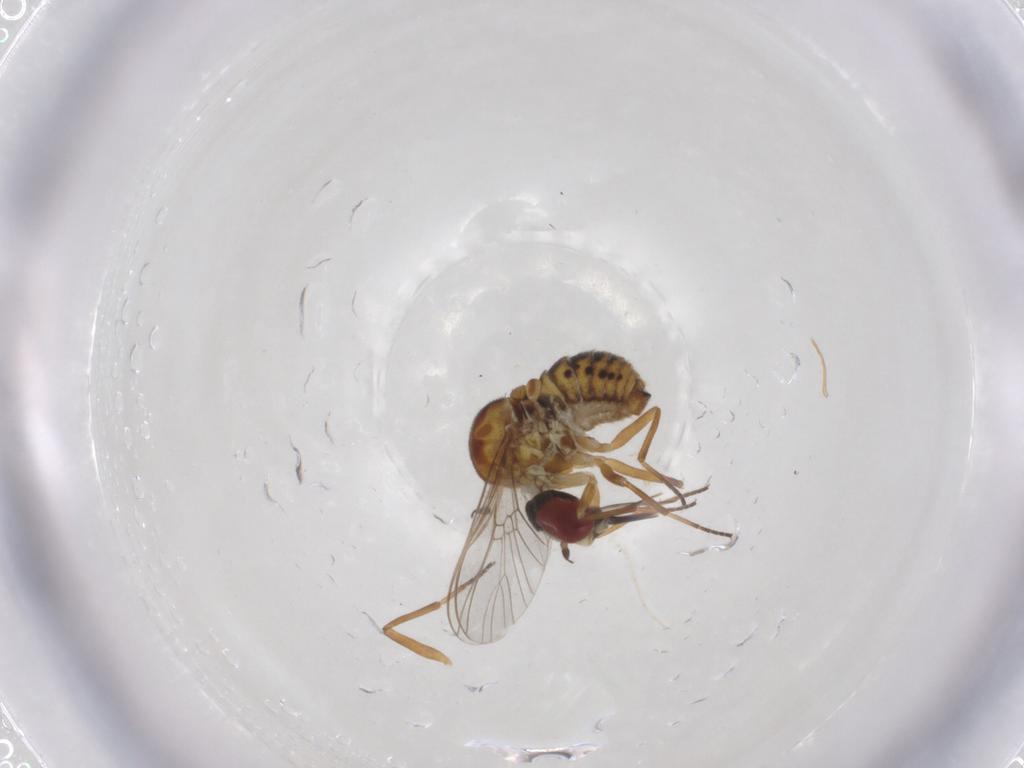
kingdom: Animalia
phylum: Arthropoda
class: Insecta
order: Diptera
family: Bombyliidae
